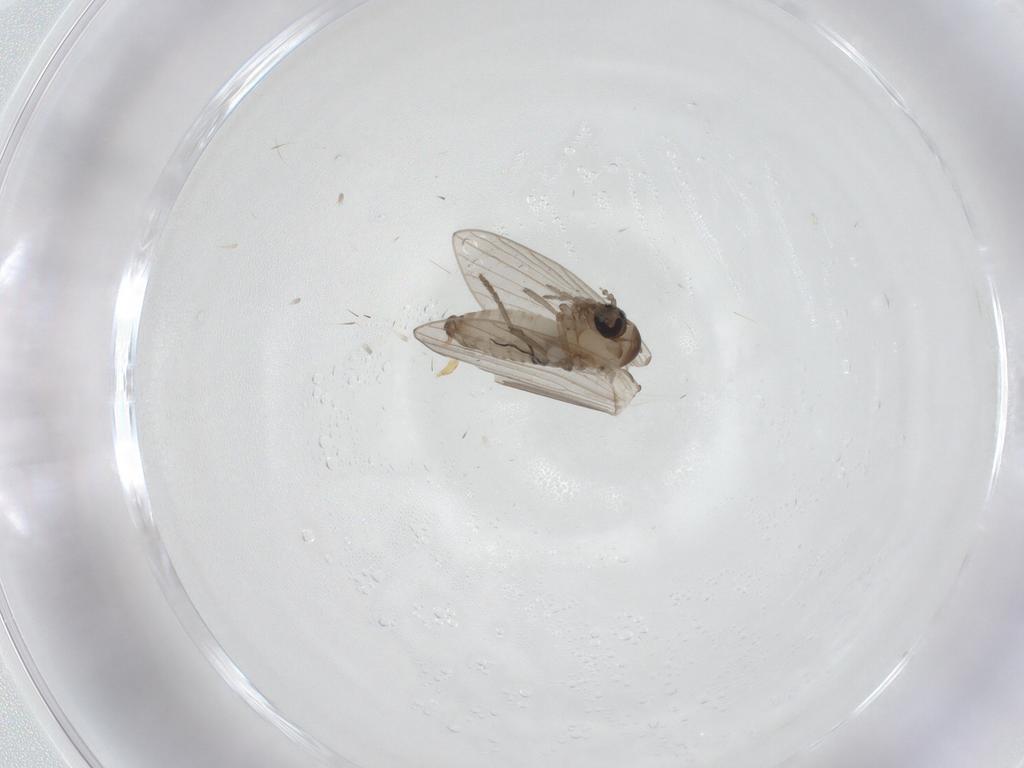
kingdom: Animalia
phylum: Arthropoda
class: Insecta
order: Diptera
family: Psychodidae
